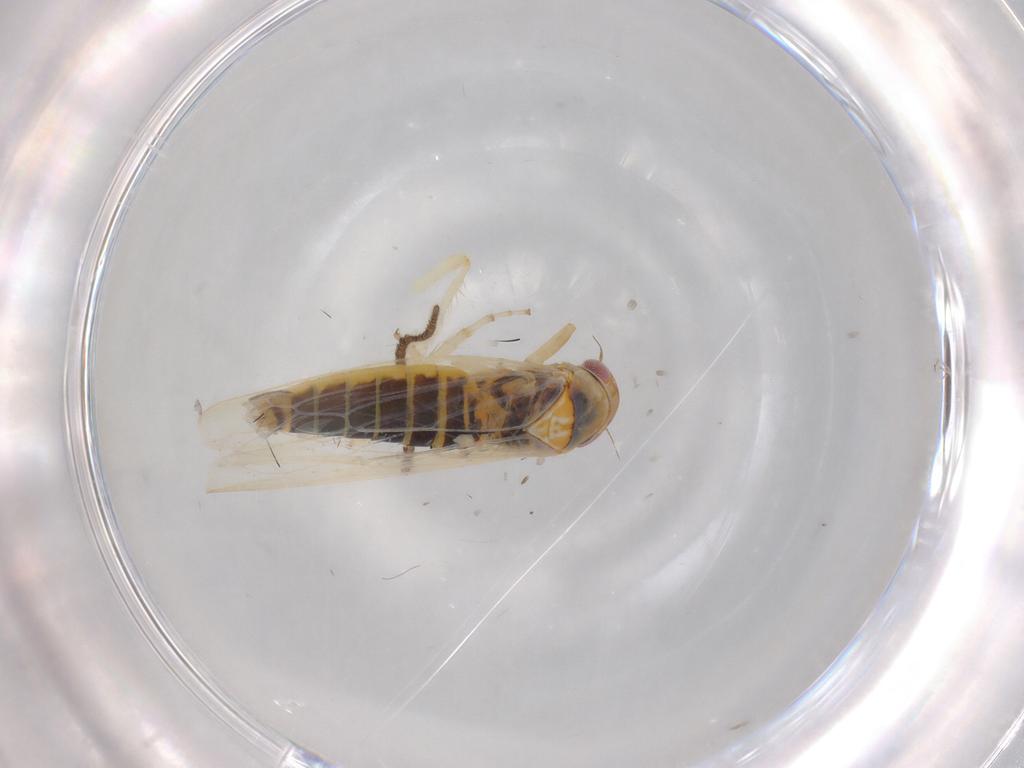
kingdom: Animalia
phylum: Arthropoda
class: Insecta
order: Hemiptera
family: Cicadellidae
